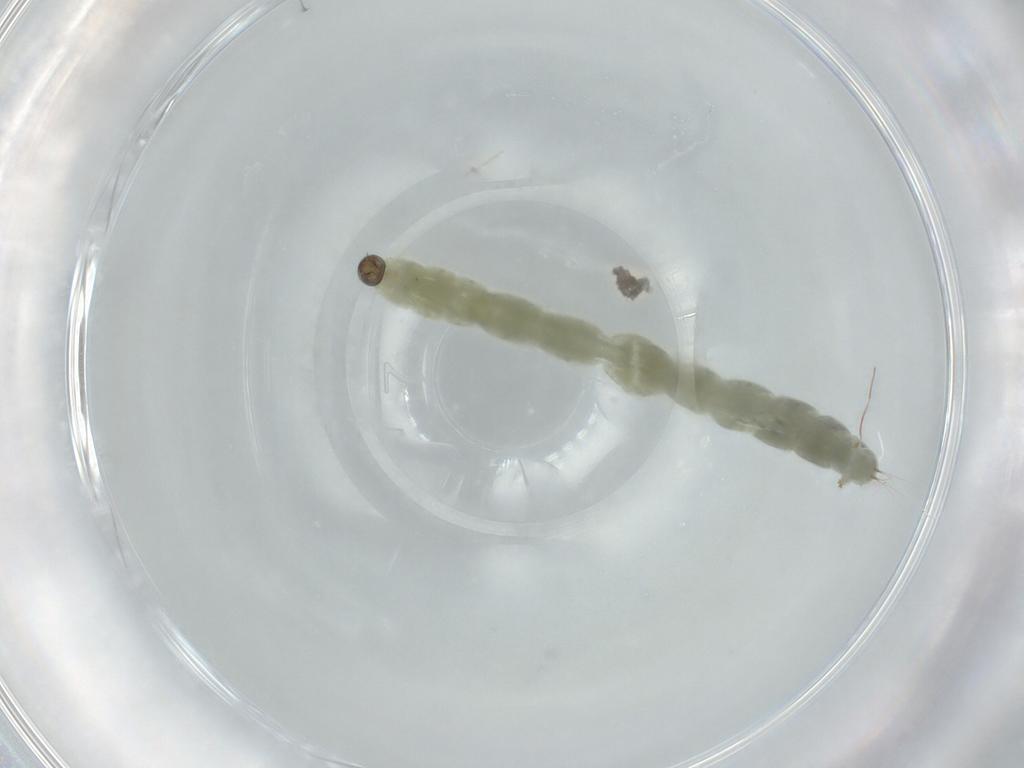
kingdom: Animalia
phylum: Arthropoda
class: Insecta
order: Diptera
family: Chironomidae
